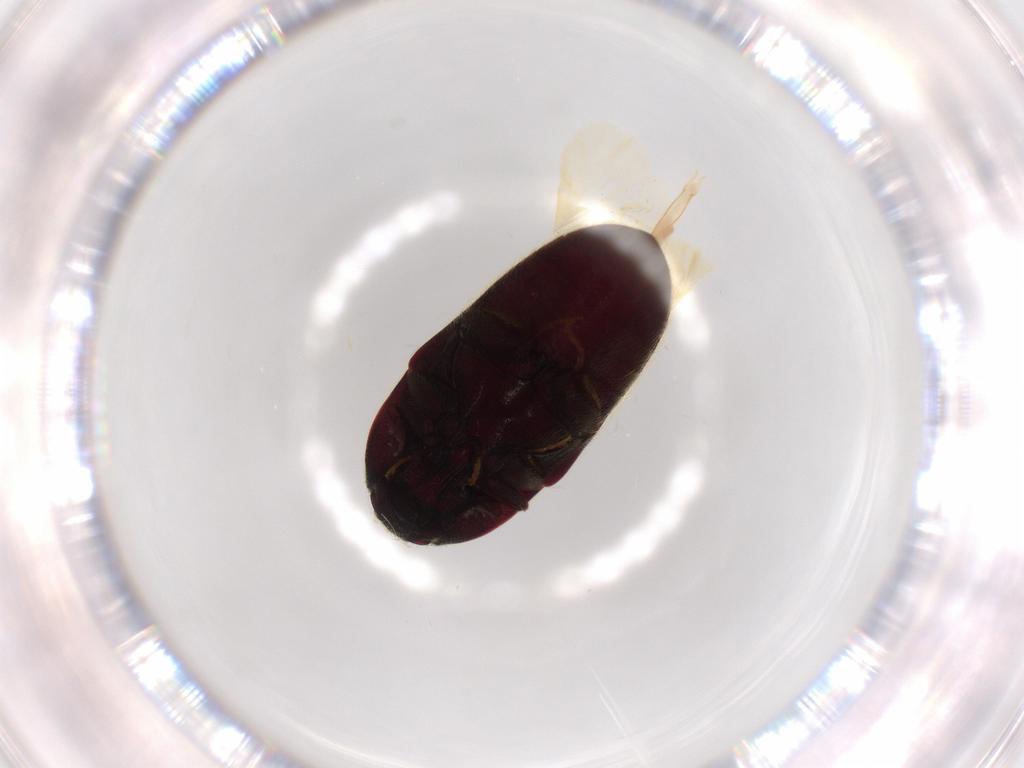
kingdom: Animalia
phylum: Arthropoda
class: Insecta
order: Coleoptera
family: Throscidae
